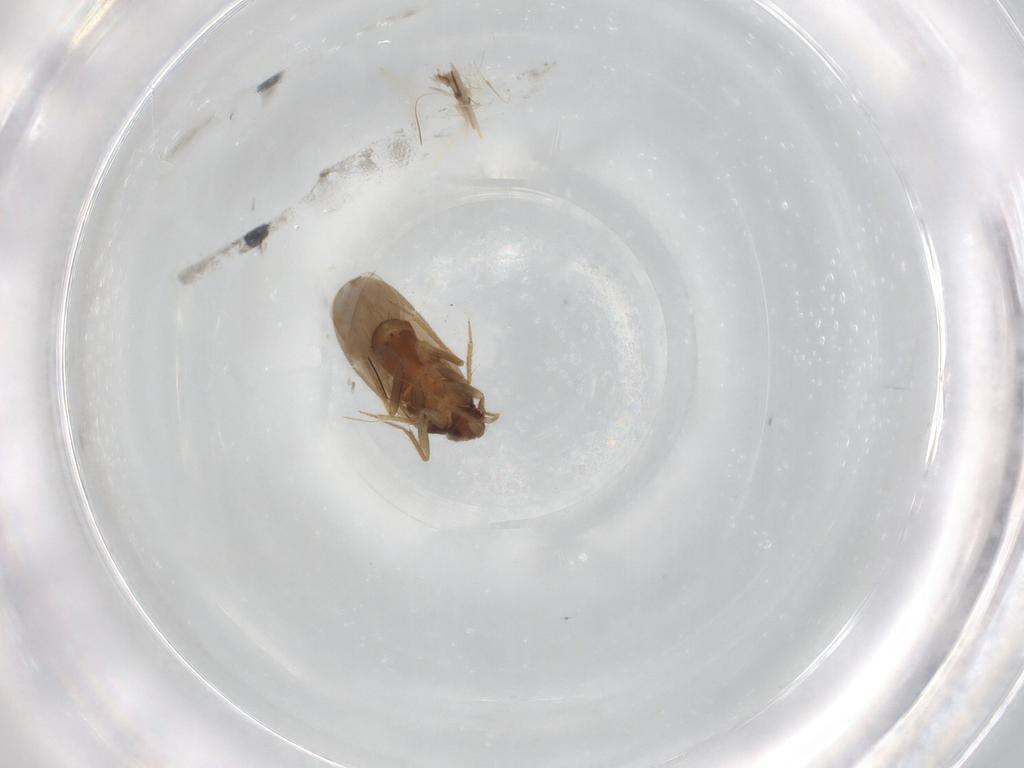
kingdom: Animalia
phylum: Arthropoda
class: Insecta
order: Hemiptera
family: Ceratocombidae
